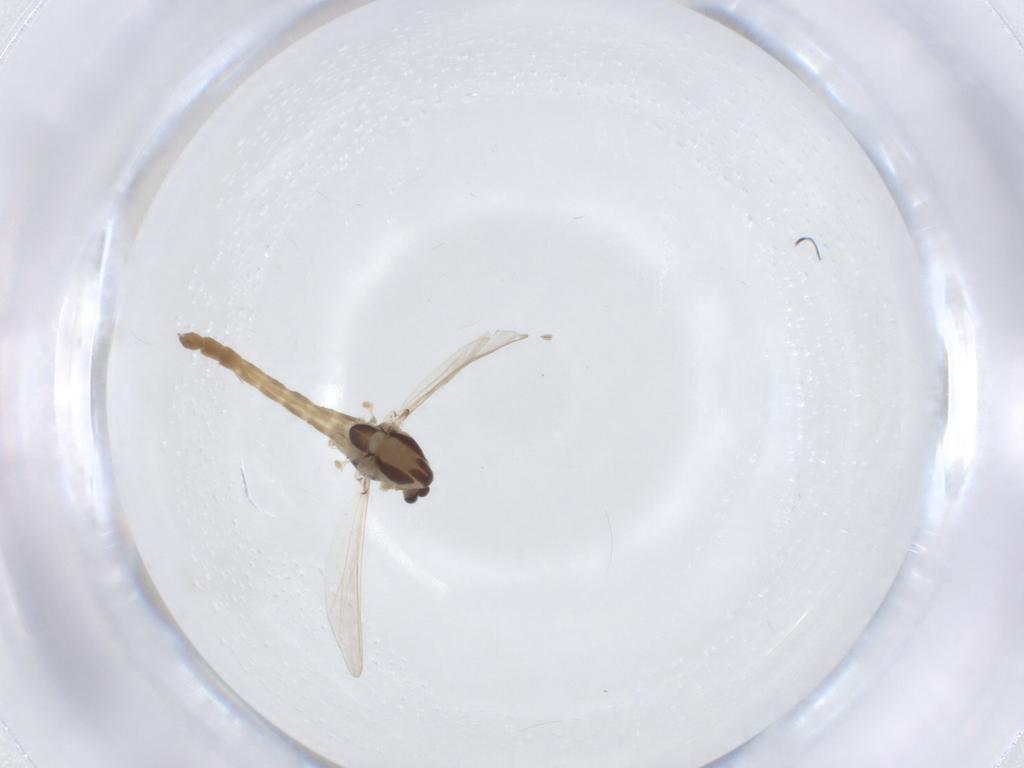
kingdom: Animalia
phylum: Arthropoda
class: Insecta
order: Diptera
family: Chironomidae
